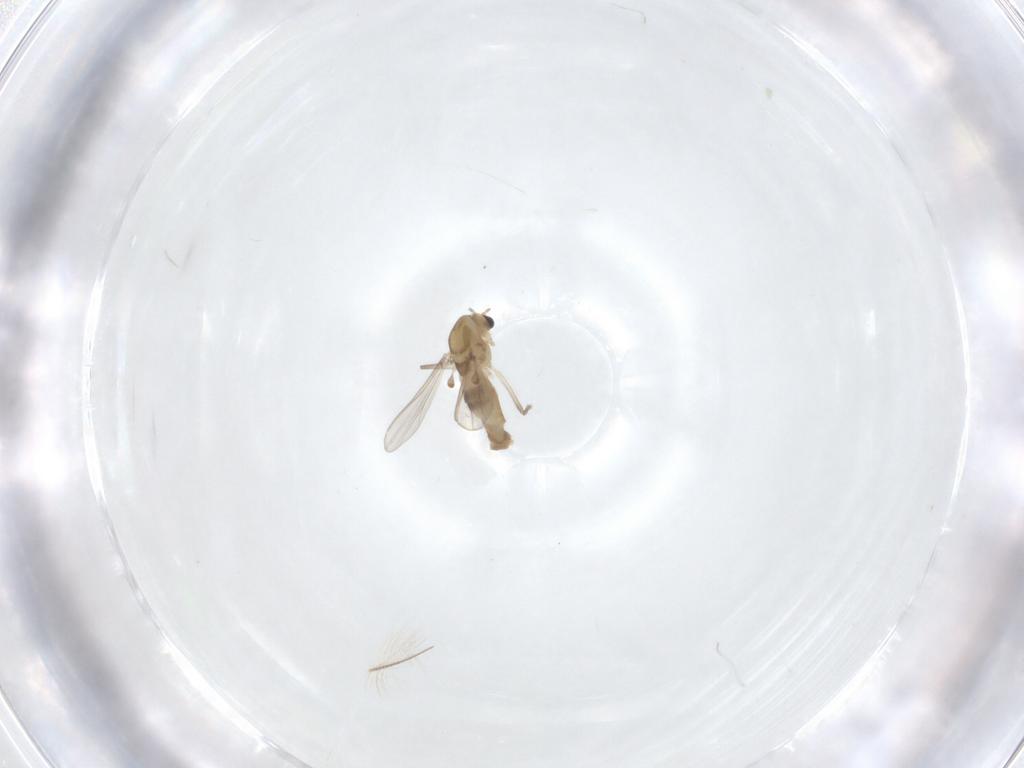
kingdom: Animalia
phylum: Arthropoda
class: Insecta
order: Diptera
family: Chironomidae
